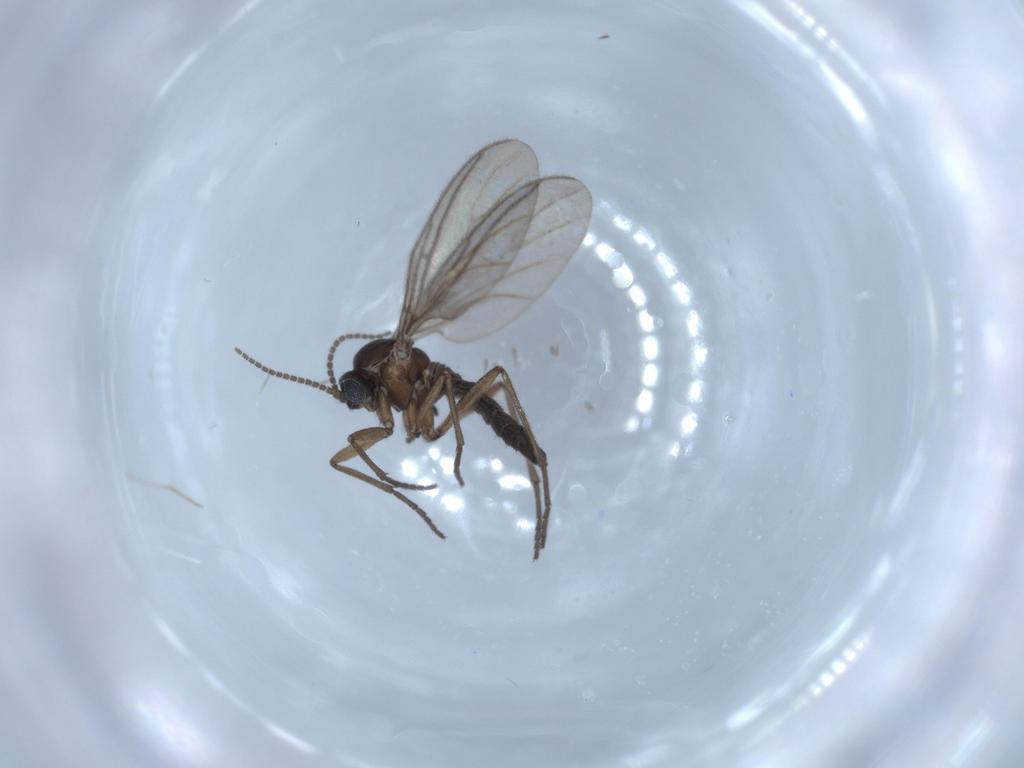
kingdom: Animalia
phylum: Arthropoda
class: Insecta
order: Diptera
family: Sciaridae
